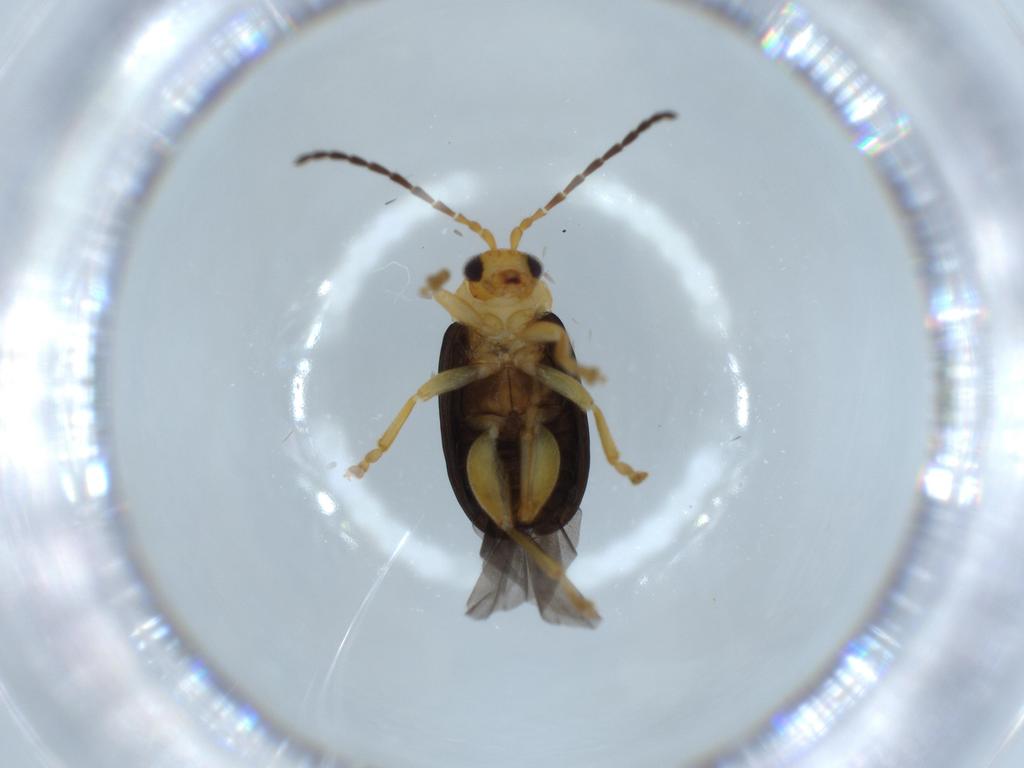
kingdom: Animalia
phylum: Arthropoda
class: Insecta
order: Coleoptera
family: Chrysomelidae
